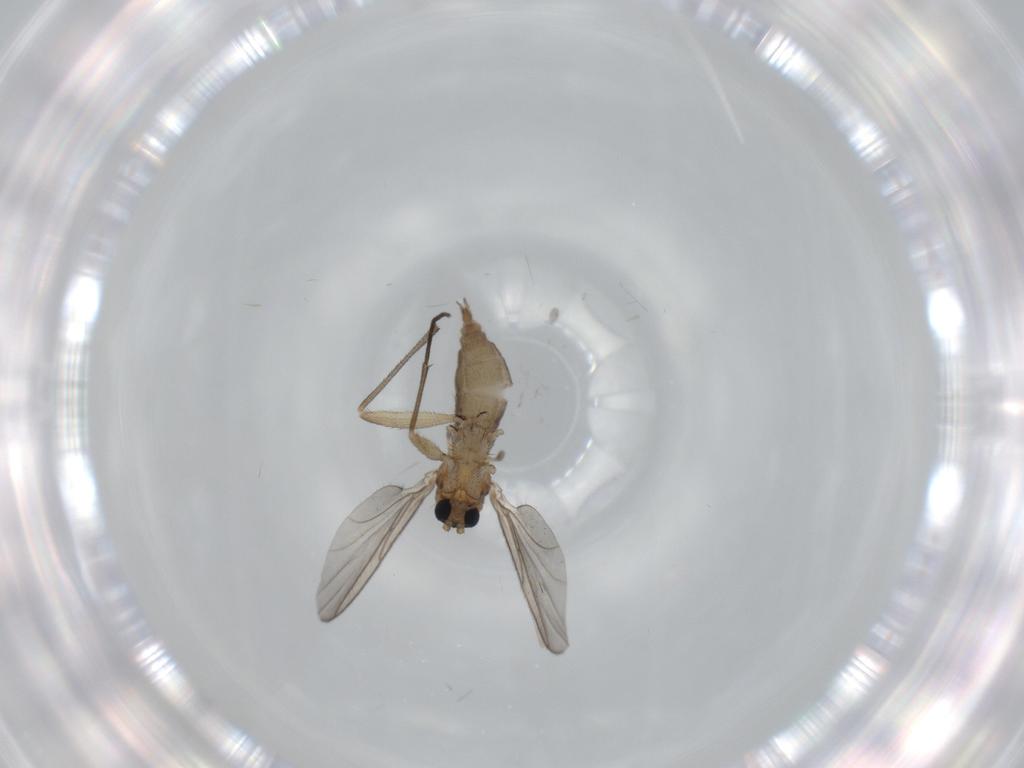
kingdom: Animalia
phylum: Arthropoda
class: Insecta
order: Diptera
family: Sciaridae
